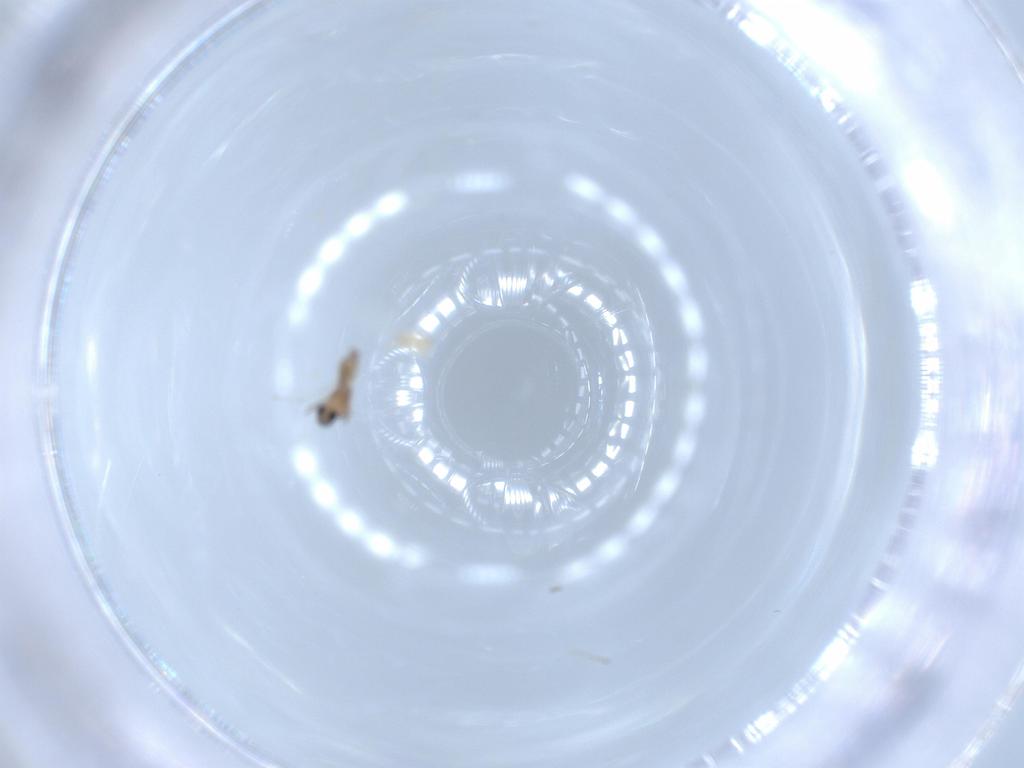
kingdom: Animalia
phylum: Arthropoda
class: Insecta
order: Diptera
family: Cecidomyiidae
